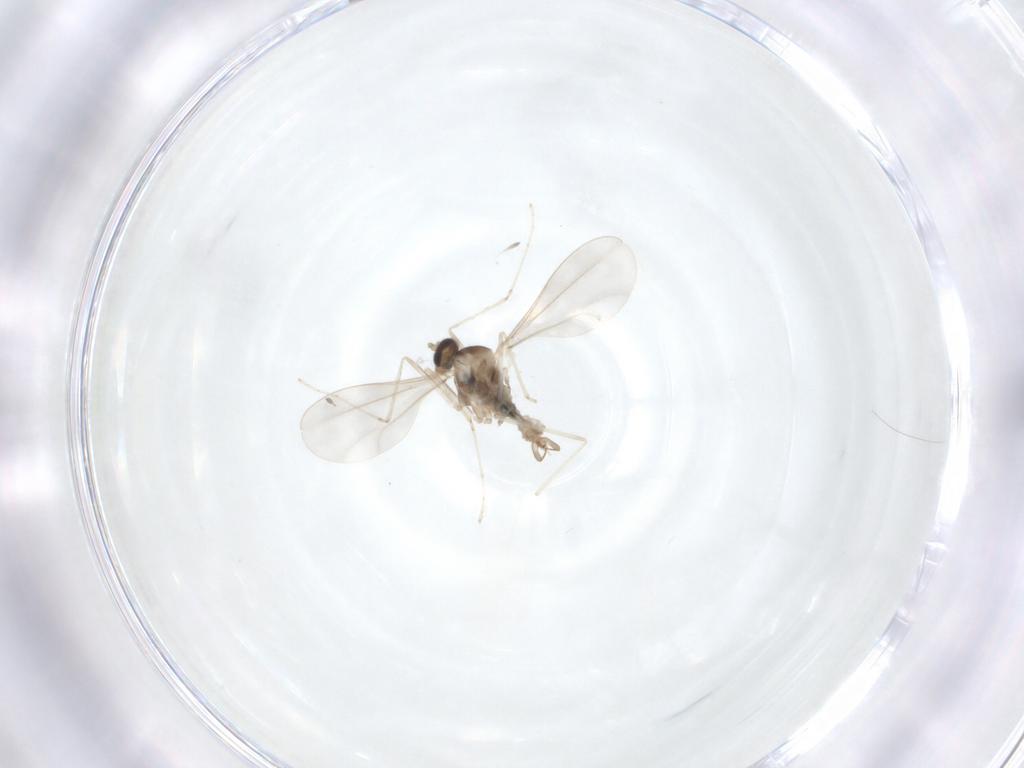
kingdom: Animalia
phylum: Arthropoda
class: Insecta
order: Diptera
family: Cecidomyiidae
